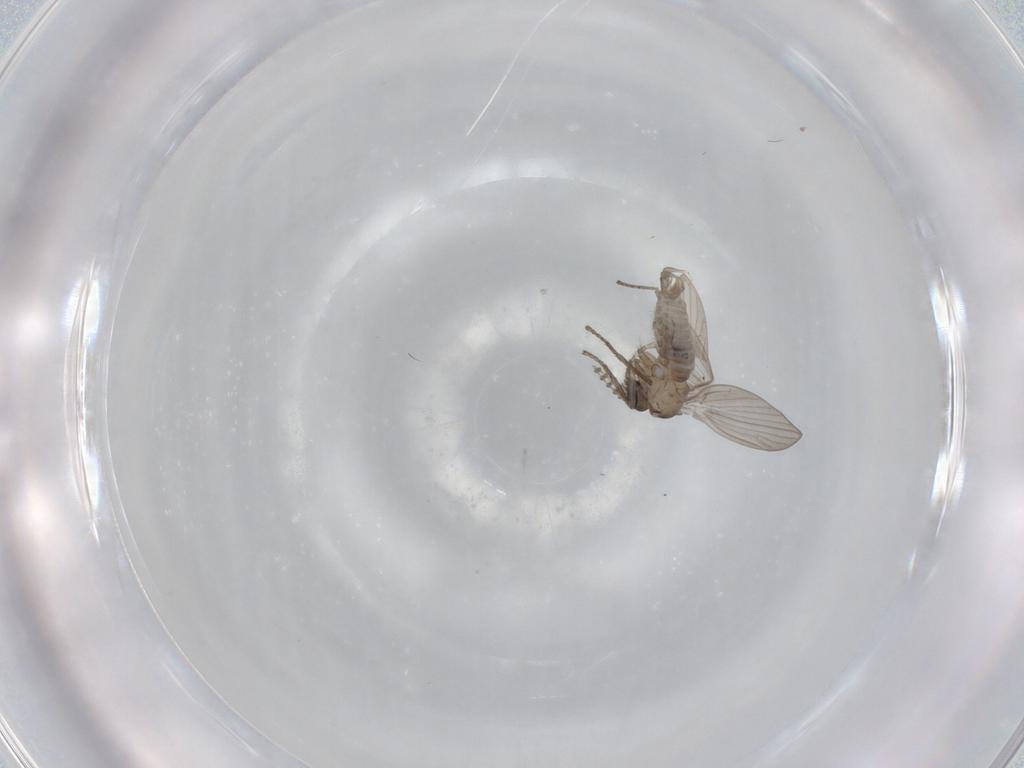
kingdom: Animalia
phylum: Arthropoda
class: Insecta
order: Diptera
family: Psychodidae
